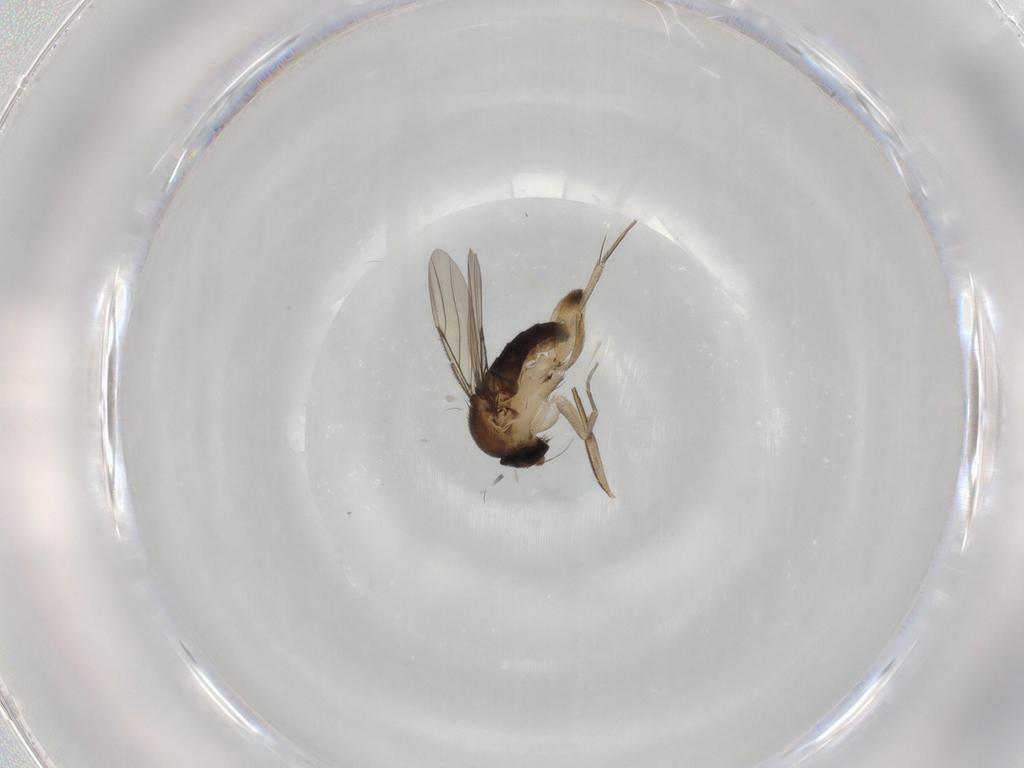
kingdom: Animalia
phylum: Arthropoda
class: Insecta
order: Diptera
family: Phoridae
